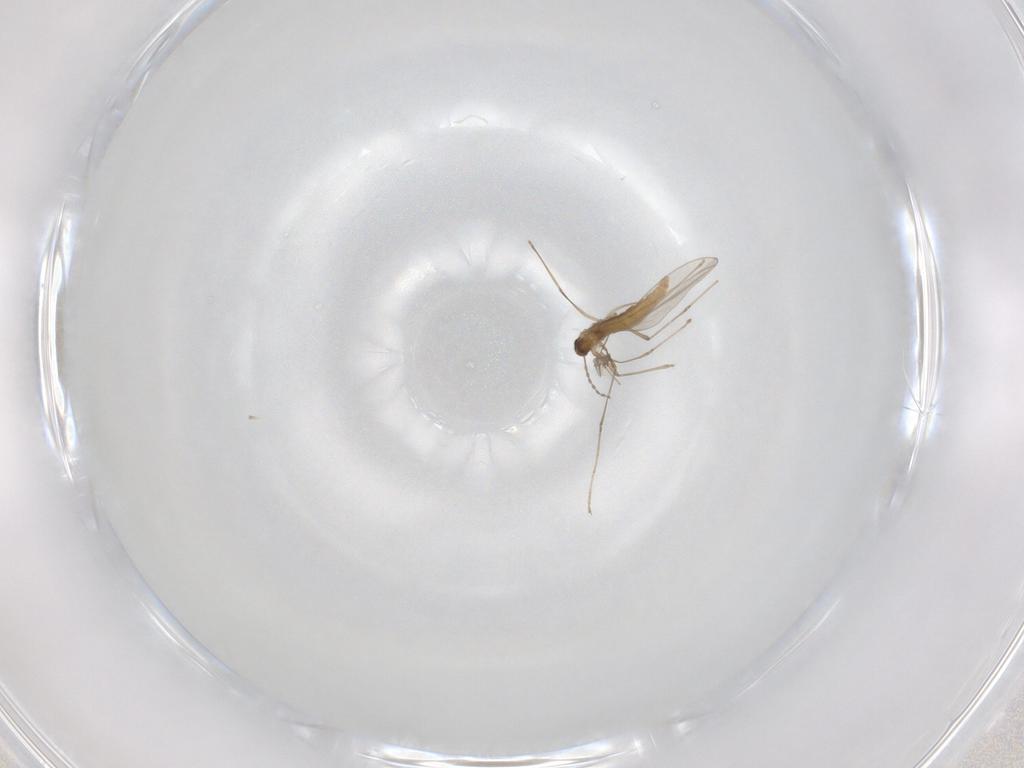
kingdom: Animalia
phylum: Arthropoda
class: Insecta
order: Diptera
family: Cecidomyiidae
